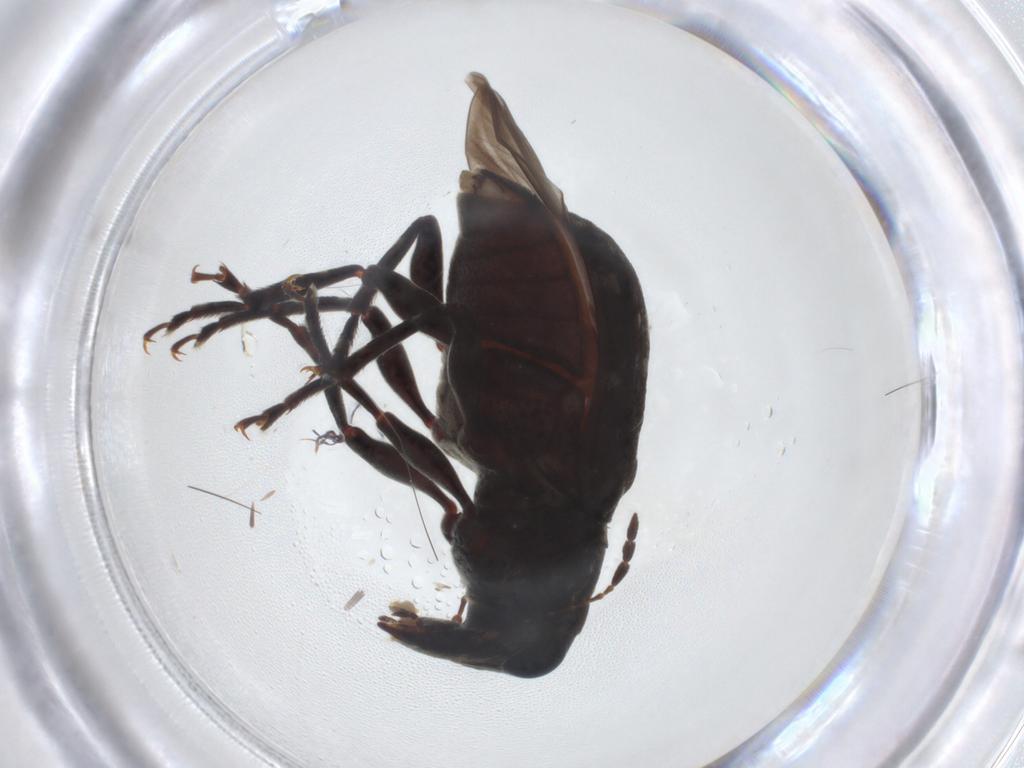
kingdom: Animalia
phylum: Arthropoda
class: Insecta
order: Coleoptera
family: Anthribidae
